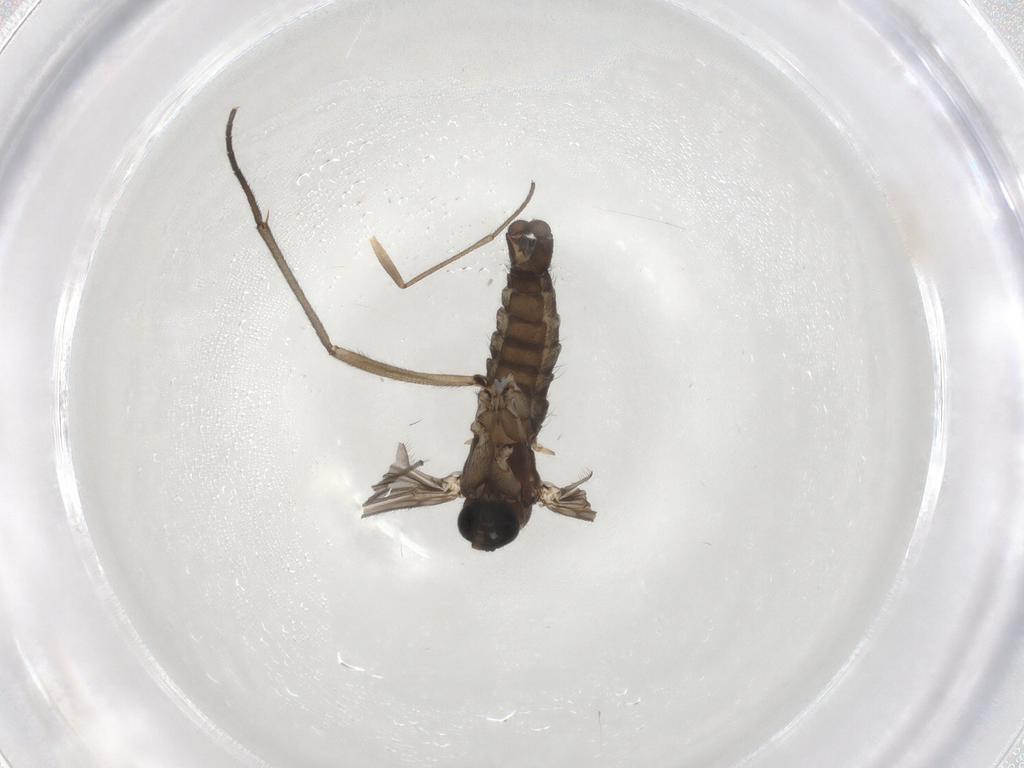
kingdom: Animalia
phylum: Arthropoda
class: Insecta
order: Diptera
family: Sciaridae
